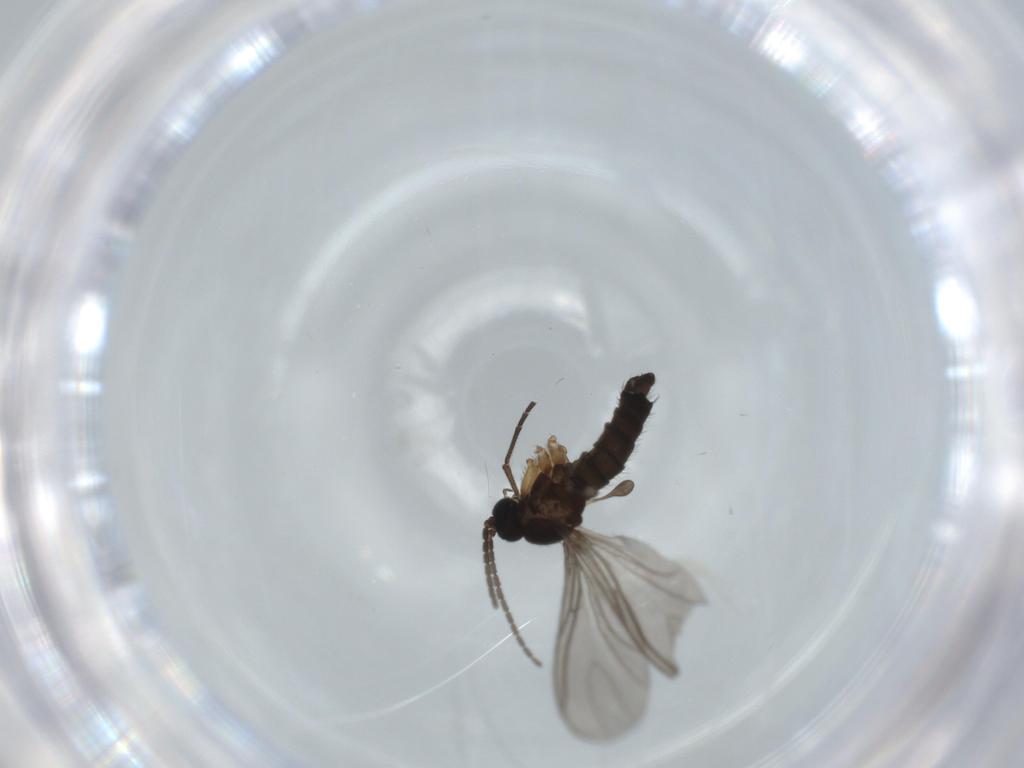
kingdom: Animalia
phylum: Arthropoda
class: Insecta
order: Diptera
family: Sciaridae
